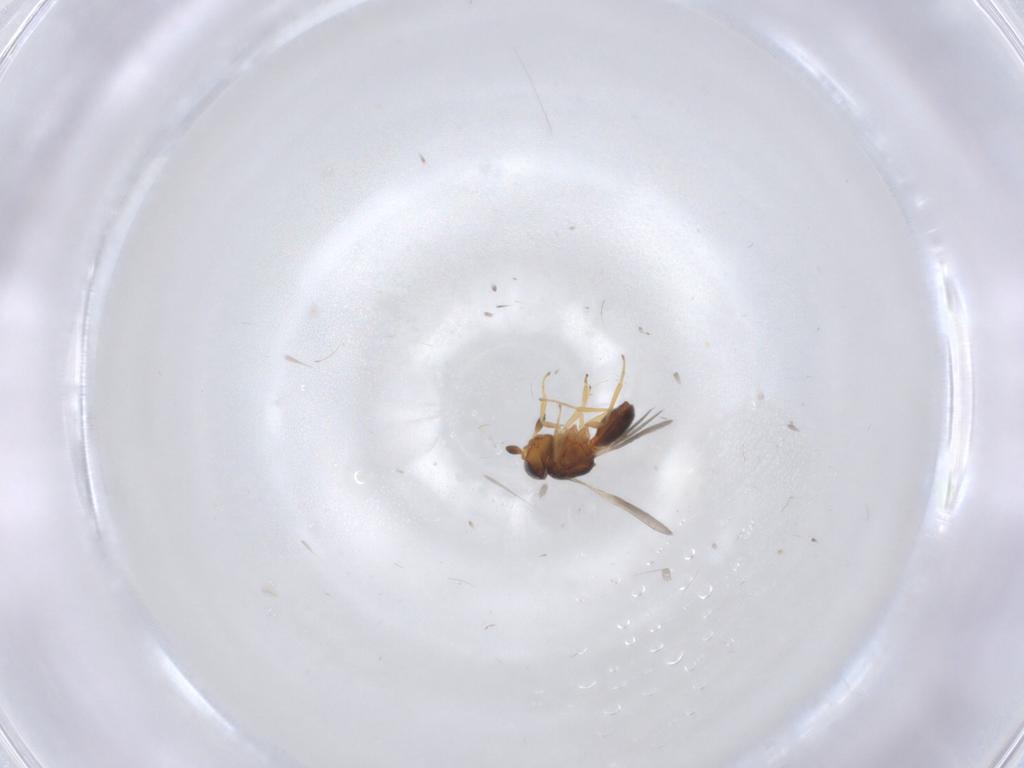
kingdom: Animalia
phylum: Arthropoda
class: Insecta
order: Hymenoptera
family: Scelionidae
